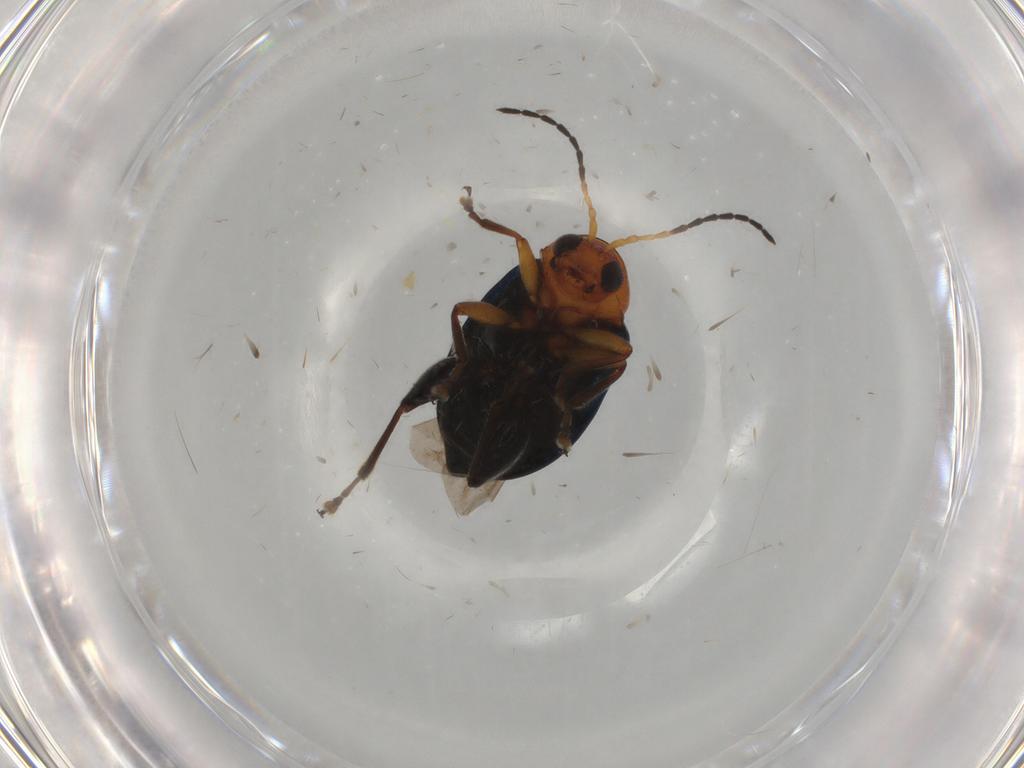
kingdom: Animalia
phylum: Arthropoda
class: Insecta
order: Coleoptera
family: Chrysomelidae
